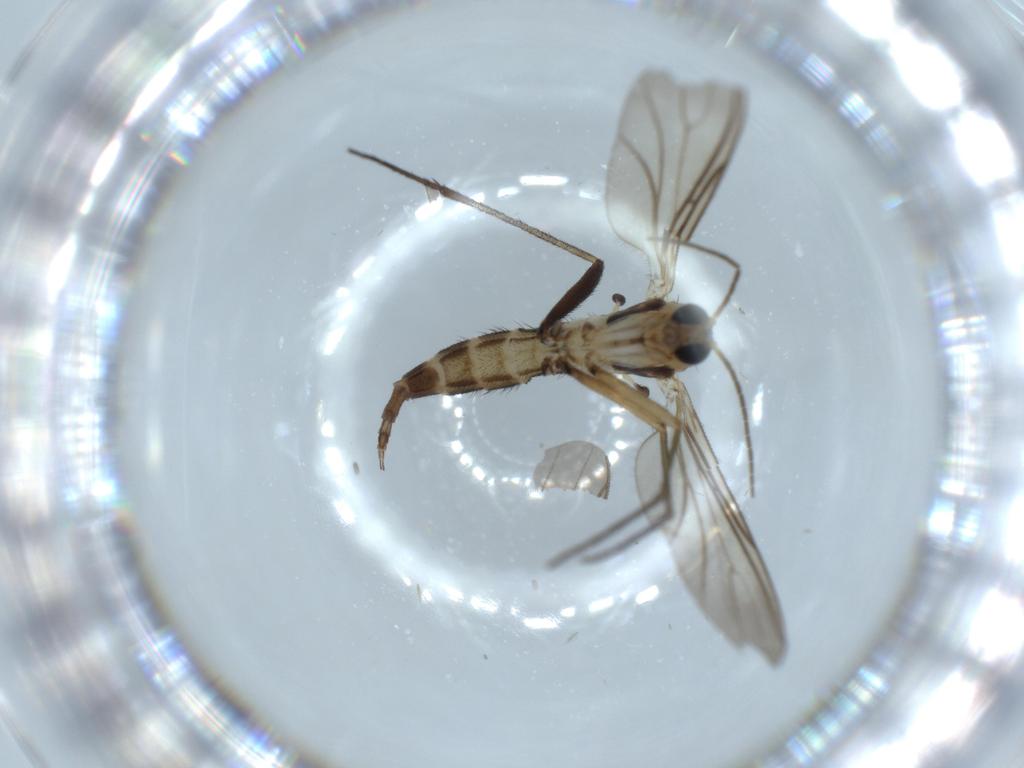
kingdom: Animalia
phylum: Arthropoda
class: Insecta
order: Diptera
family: Sciaridae
